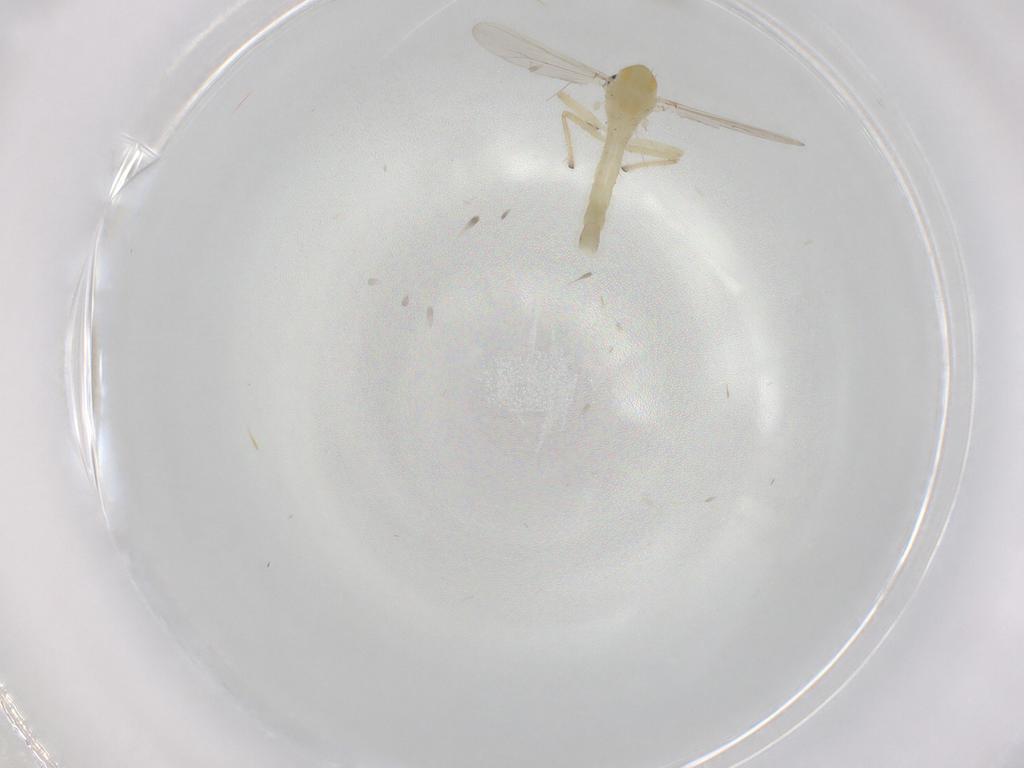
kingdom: Animalia
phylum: Arthropoda
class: Insecta
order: Diptera
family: Chironomidae
